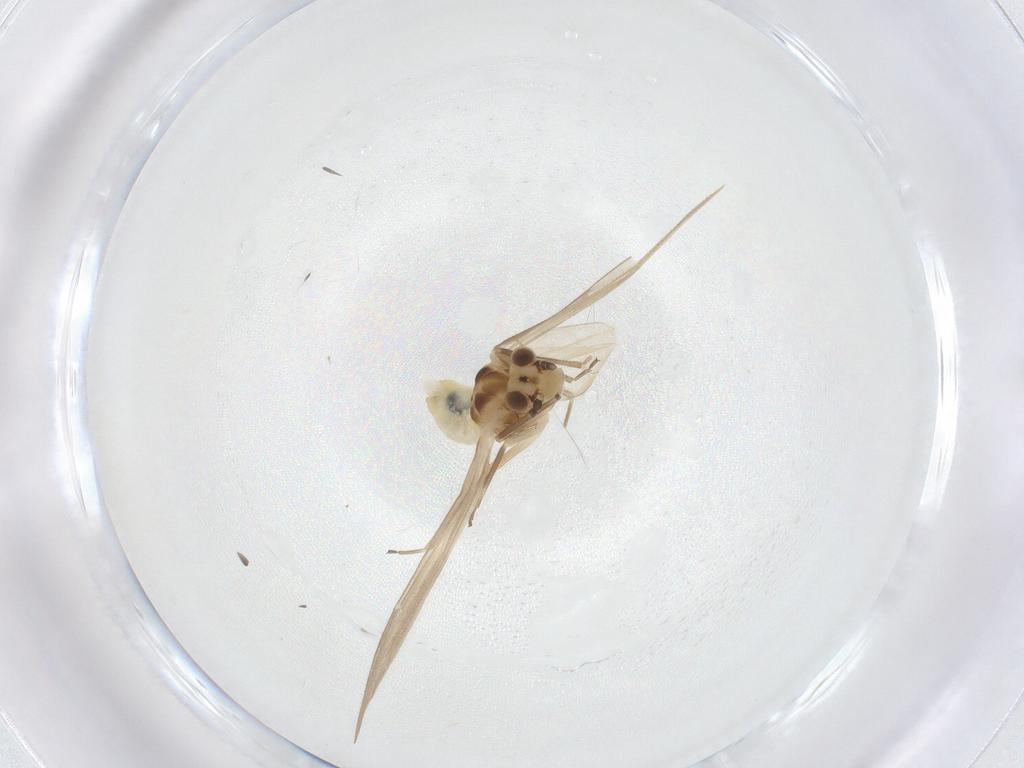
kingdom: Animalia
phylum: Arthropoda
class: Insecta
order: Psocodea
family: Caeciliusidae
